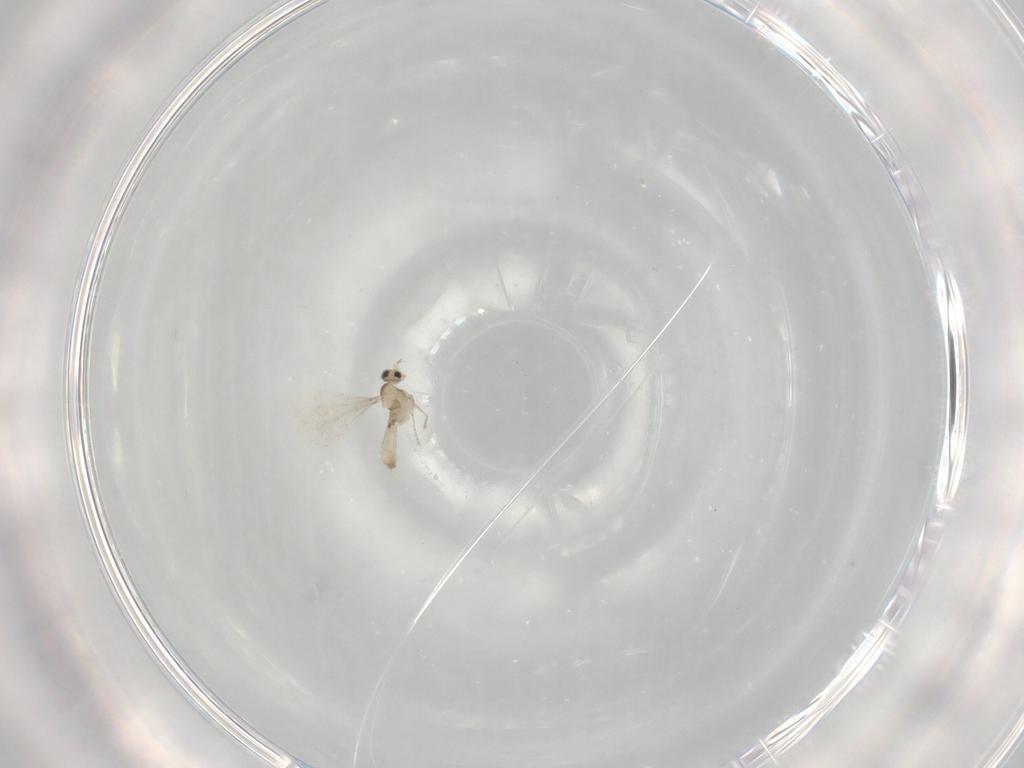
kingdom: Animalia
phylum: Arthropoda
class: Insecta
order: Diptera
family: Cecidomyiidae
